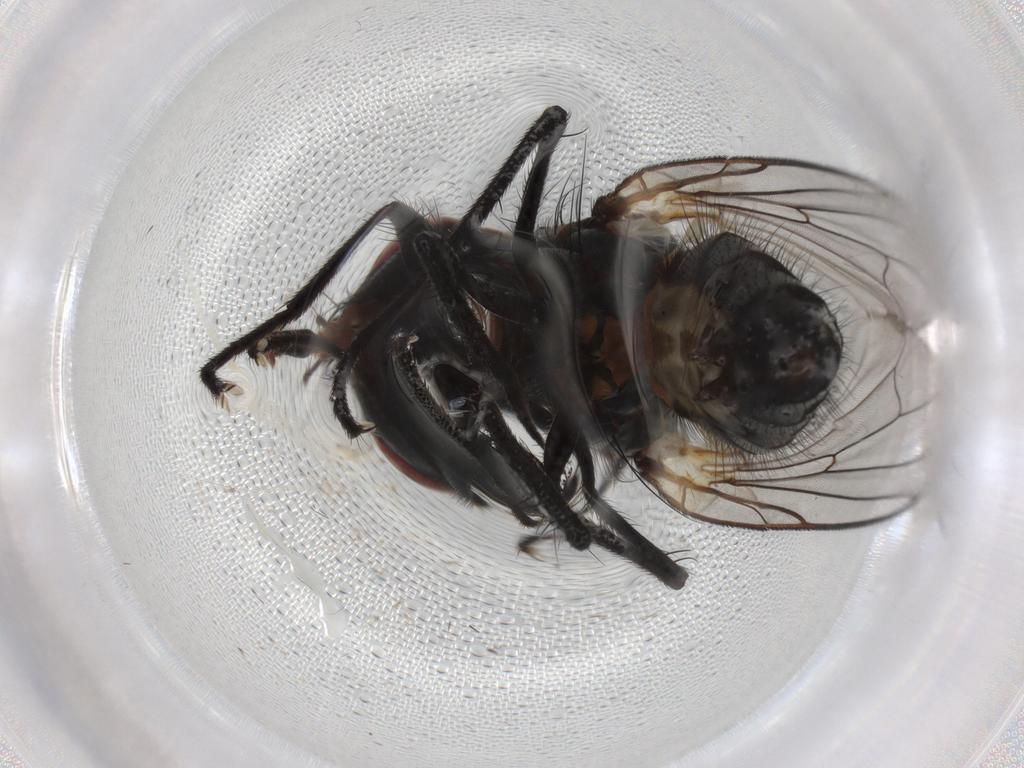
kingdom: Animalia
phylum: Arthropoda
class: Insecta
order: Diptera
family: Anthomyiidae
